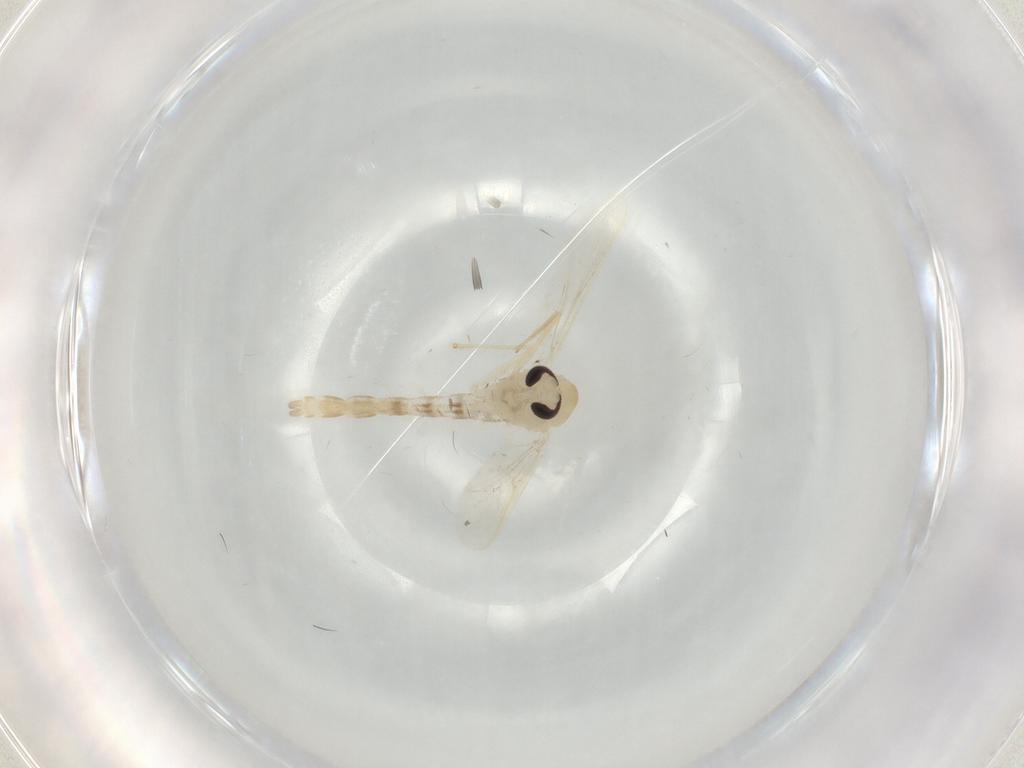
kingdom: Animalia
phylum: Arthropoda
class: Insecta
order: Diptera
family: Chironomidae
